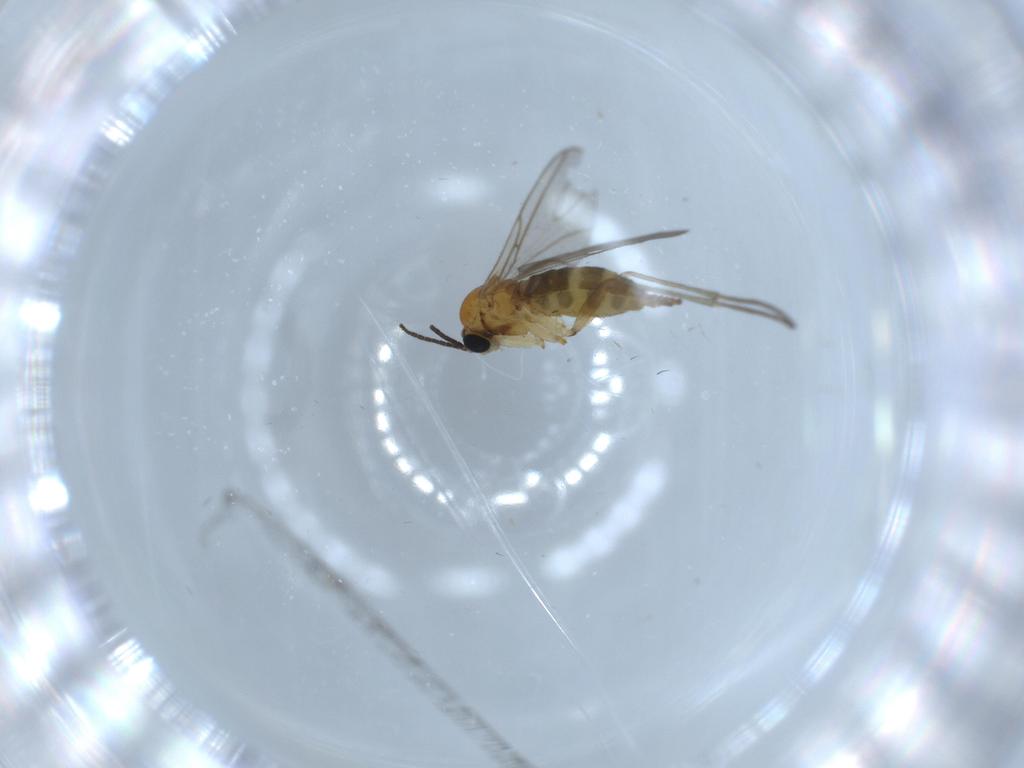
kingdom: Animalia
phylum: Arthropoda
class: Insecta
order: Diptera
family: Sciaridae
